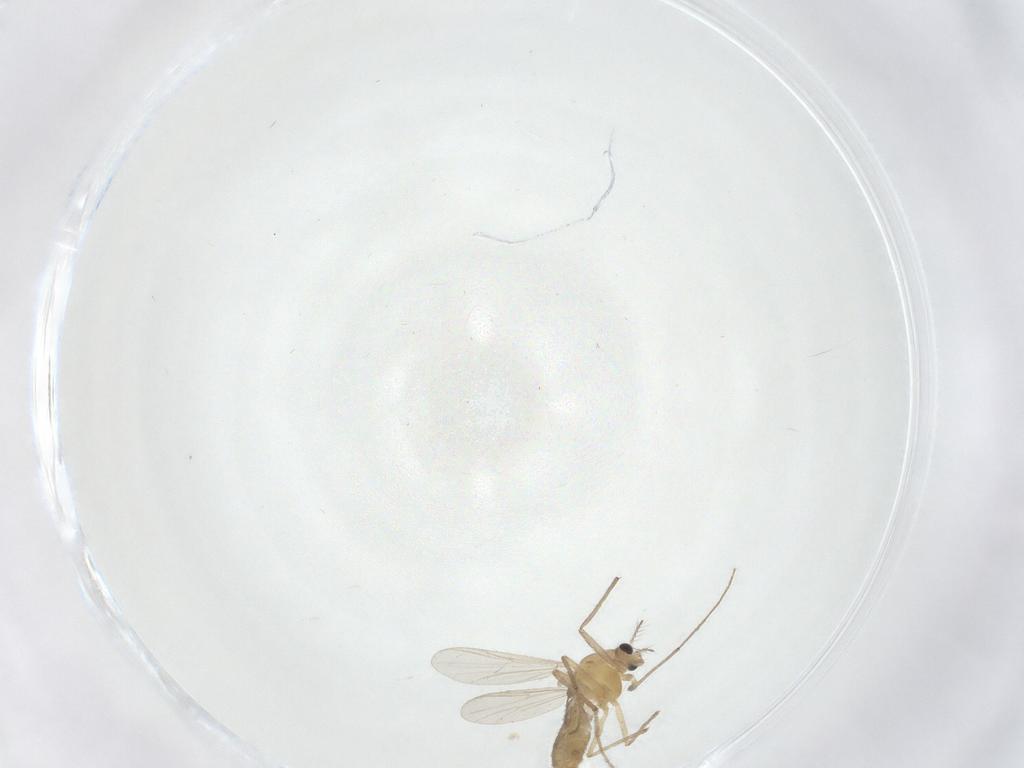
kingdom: Animalia
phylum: Arthropoda
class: Insecta
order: Diptera
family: Chironomidae
